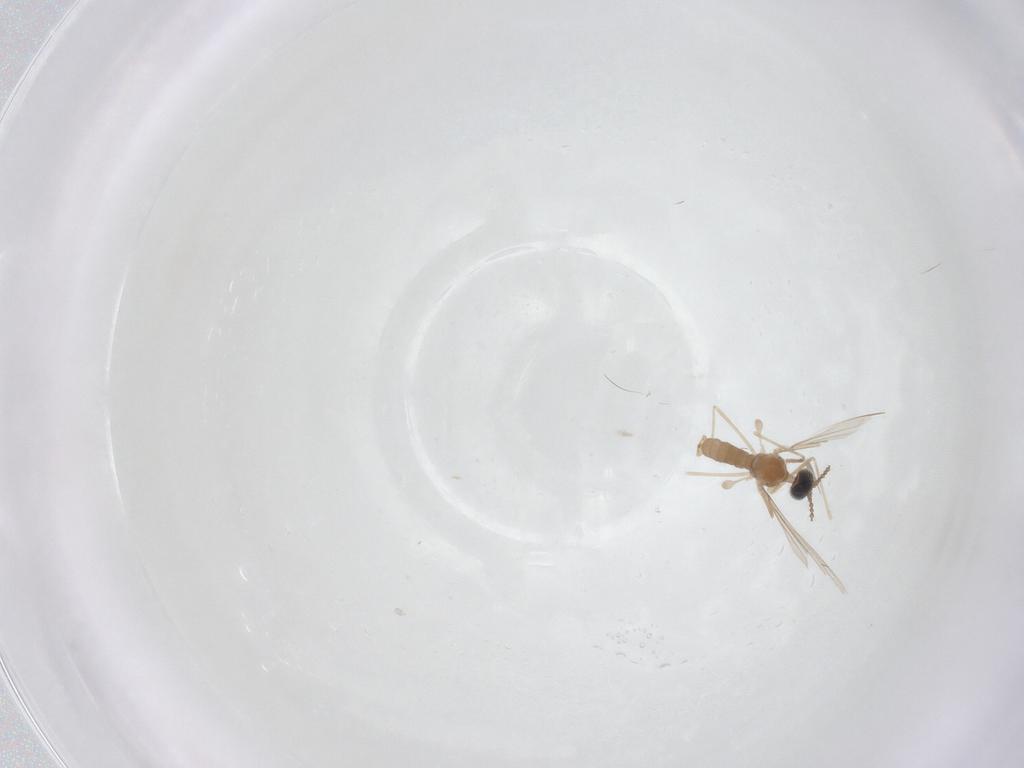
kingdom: Animalia
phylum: Arthropoda
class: Insecta
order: Diptera
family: Cecidomyiidae
